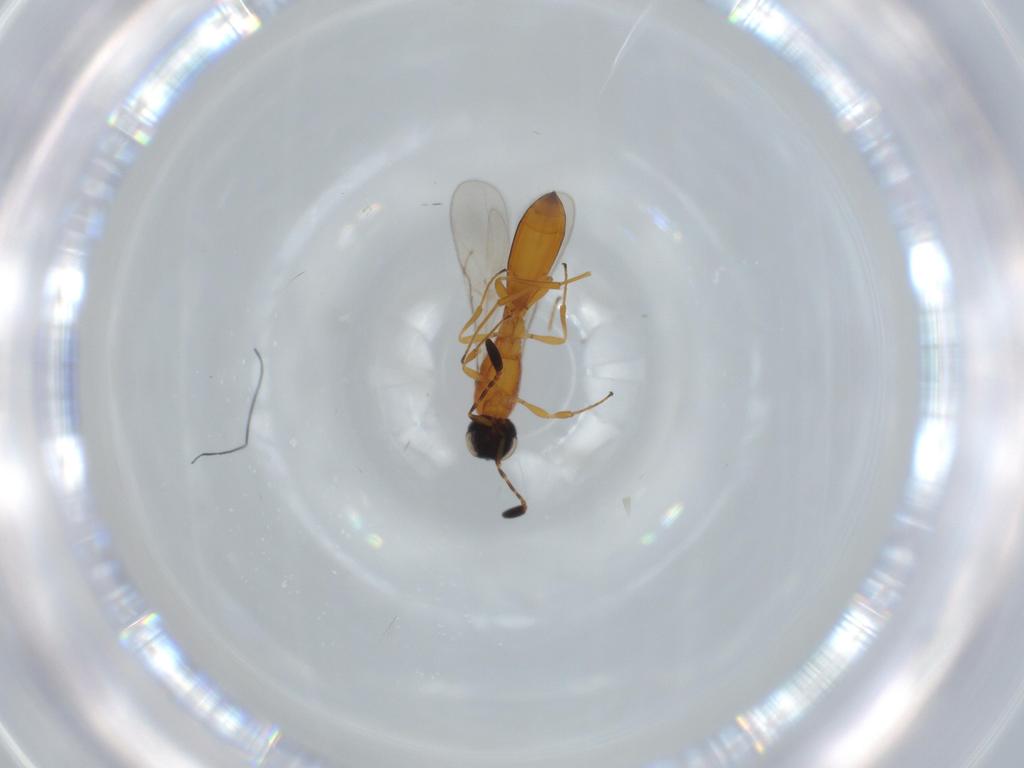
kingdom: Animalia
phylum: Arthropoda
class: Insecta
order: Hymenoptera
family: Scelionidae
